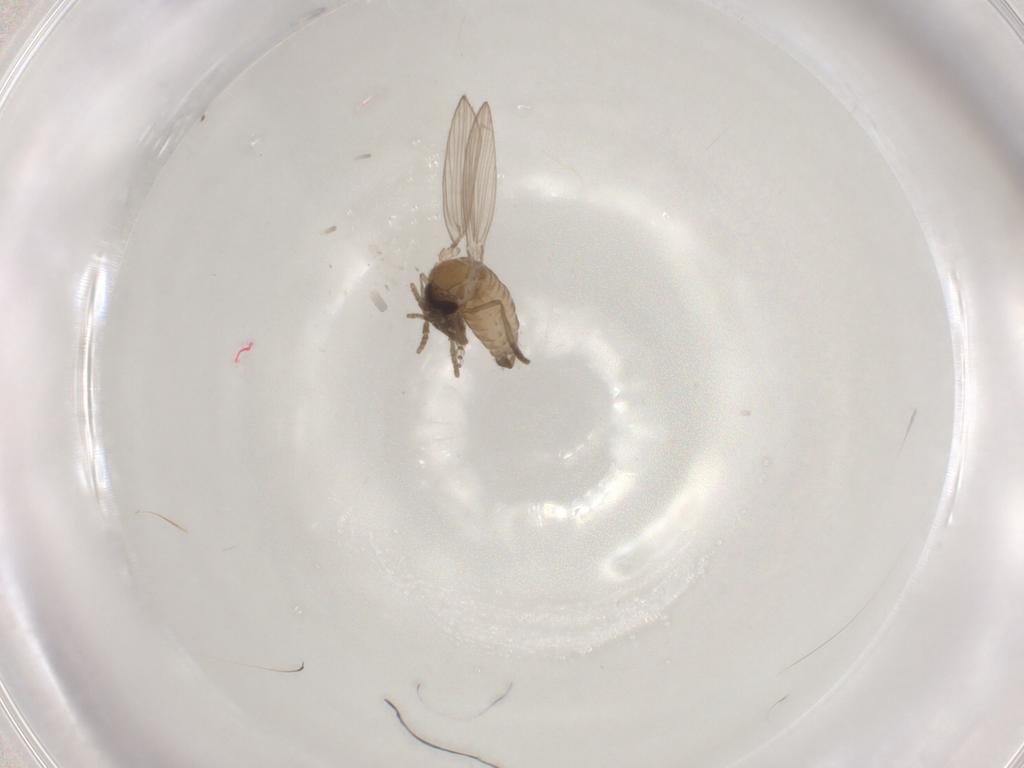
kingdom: Animalia
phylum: Arthropoda
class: Insecta
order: Diptera
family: Psychodidae
